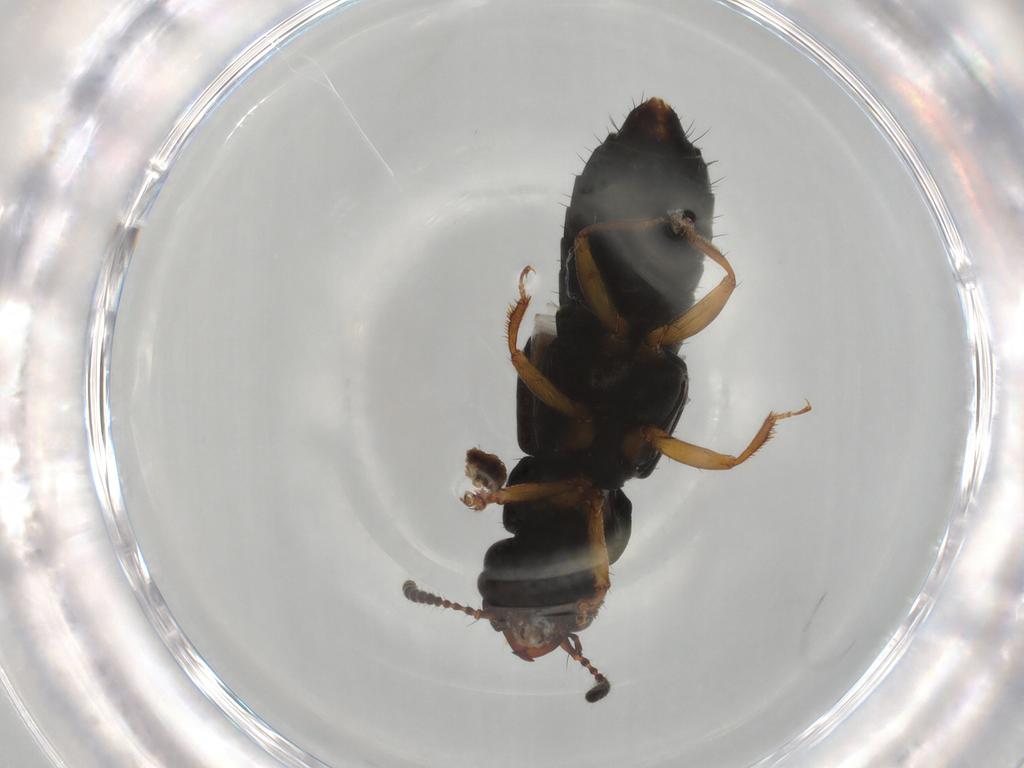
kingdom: Animalia
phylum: Arthropoda
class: Insecta
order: Coleoptera
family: Staphylinidae
